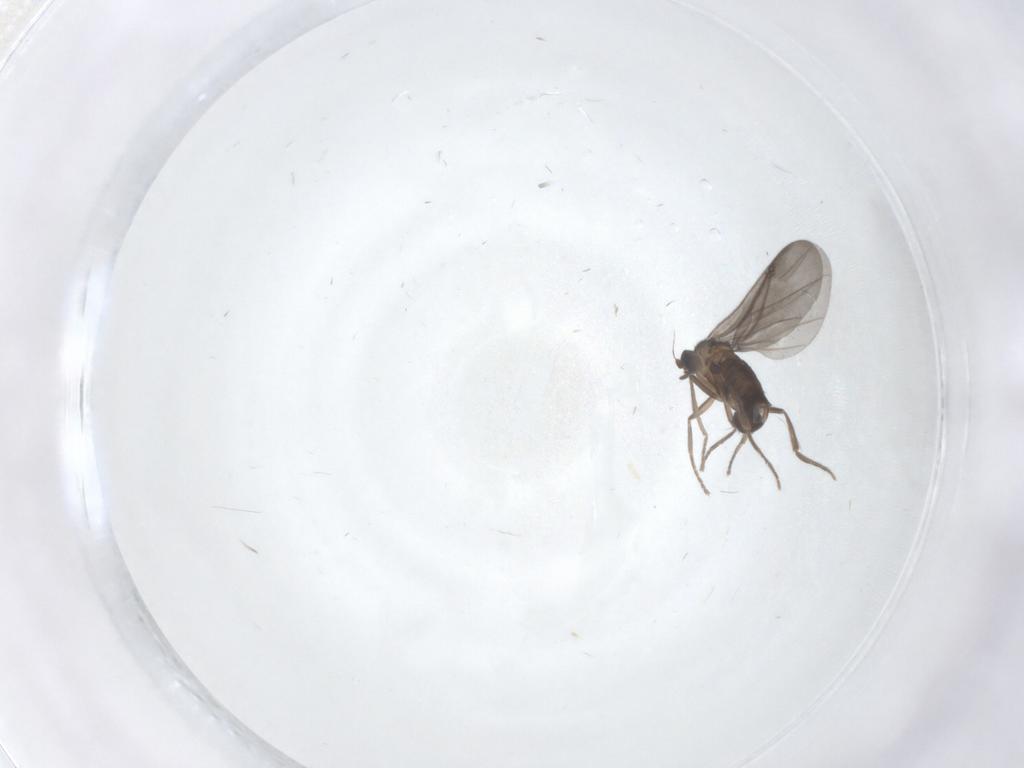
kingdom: Animalia
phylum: Arthropoda
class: Insecta
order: Diptera
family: Phoridae
